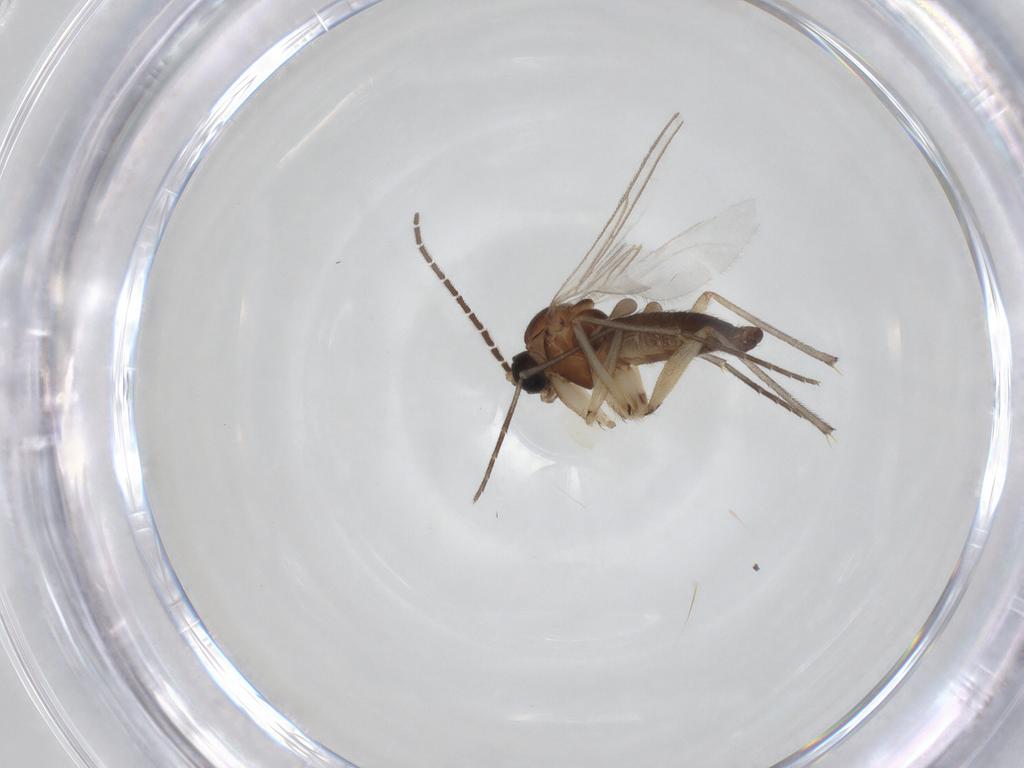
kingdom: Animalia
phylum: Arthropoda
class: Insecta
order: Diptera
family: Sciaridae
